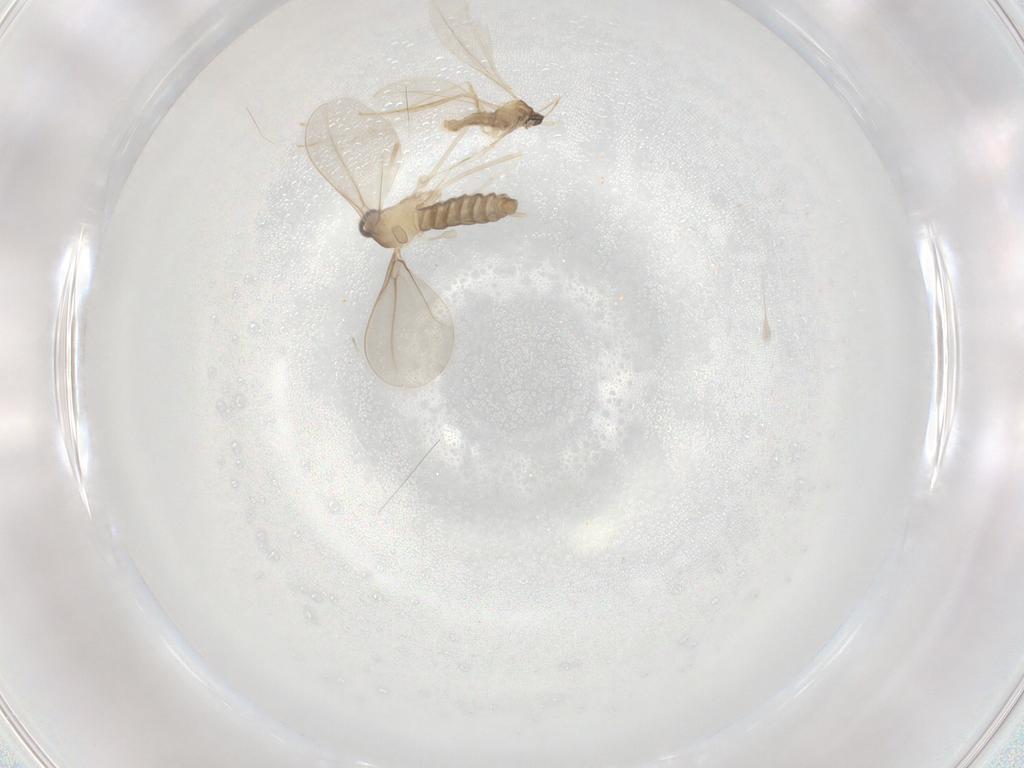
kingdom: Animalia
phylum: Arthropoda
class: Insecta
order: Diptera
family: Cecidomyiidae
